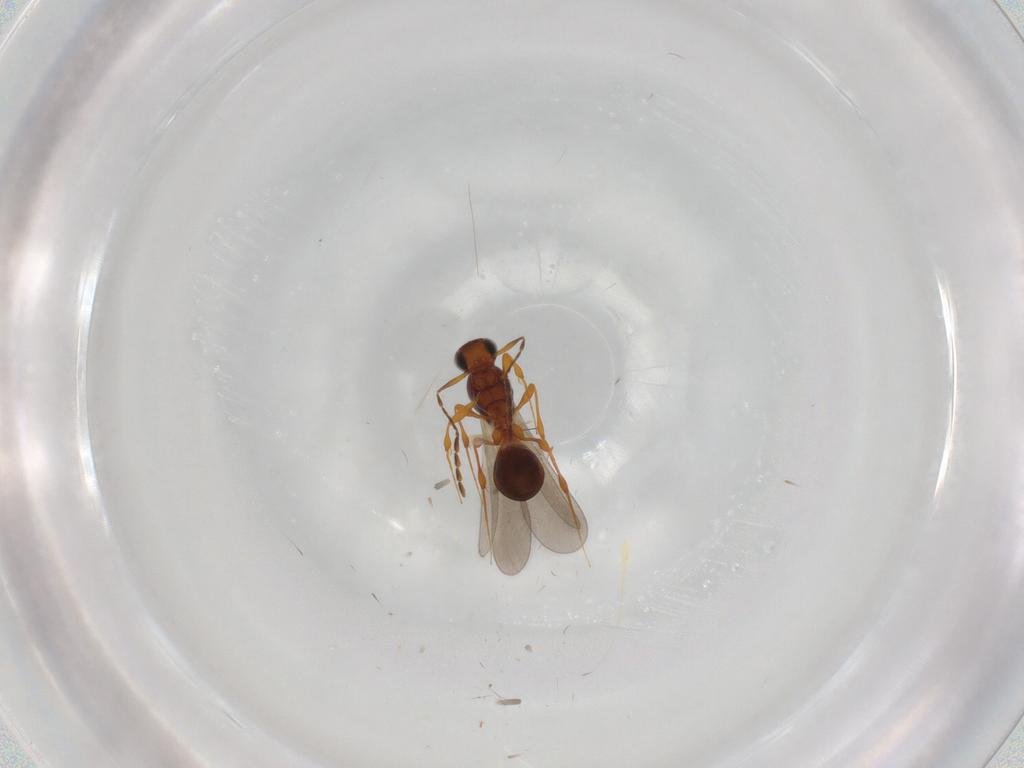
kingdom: Animalia
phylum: Arthropoda
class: Insecta
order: Hymenoptera
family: Platygastridae
